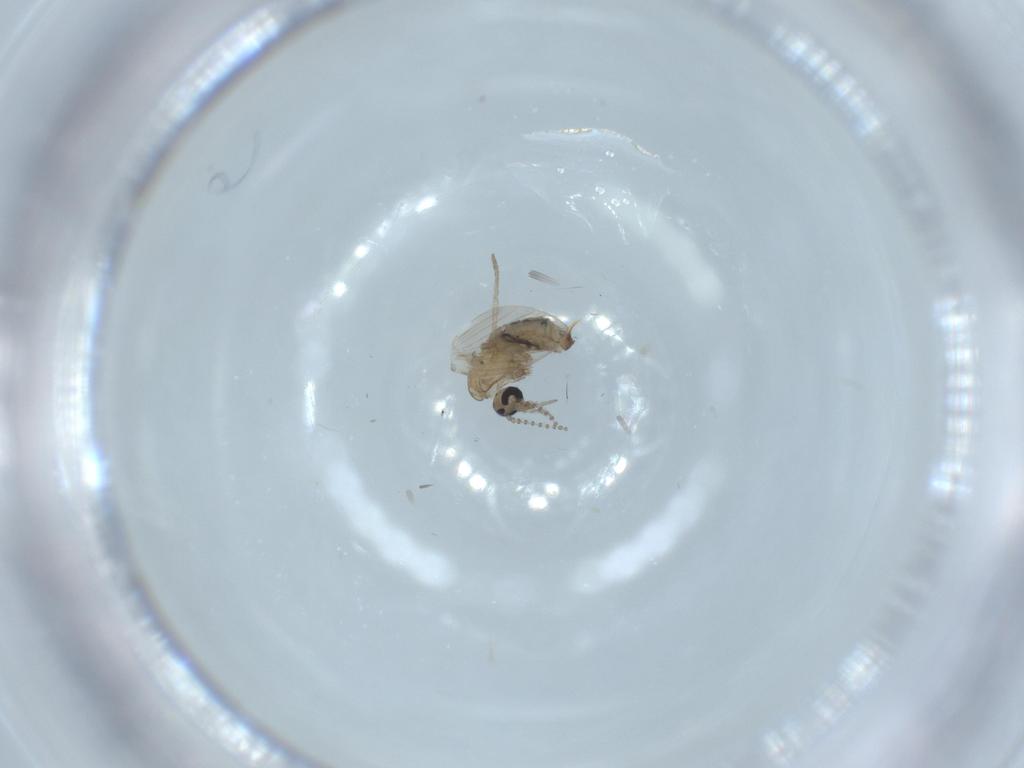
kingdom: Animalia
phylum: Arthropoda
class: Insecta
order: Diptera
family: Psychodidae
